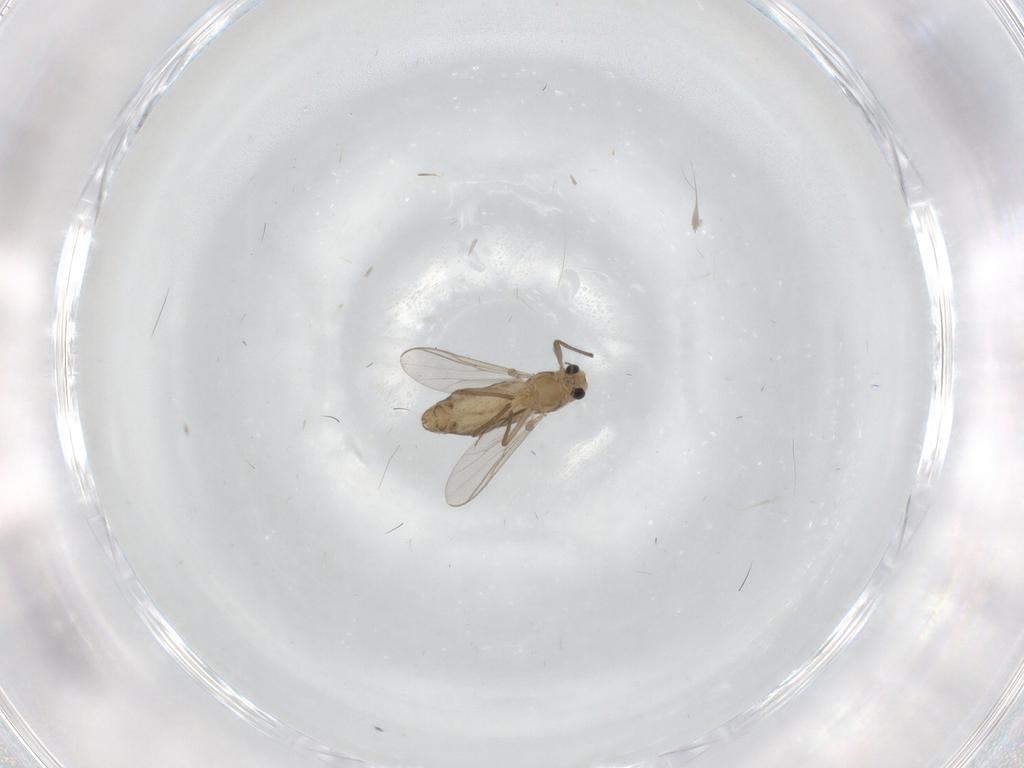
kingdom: Animalia
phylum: Arthropoda
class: Insecta
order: Diptera
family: Chironomidae
